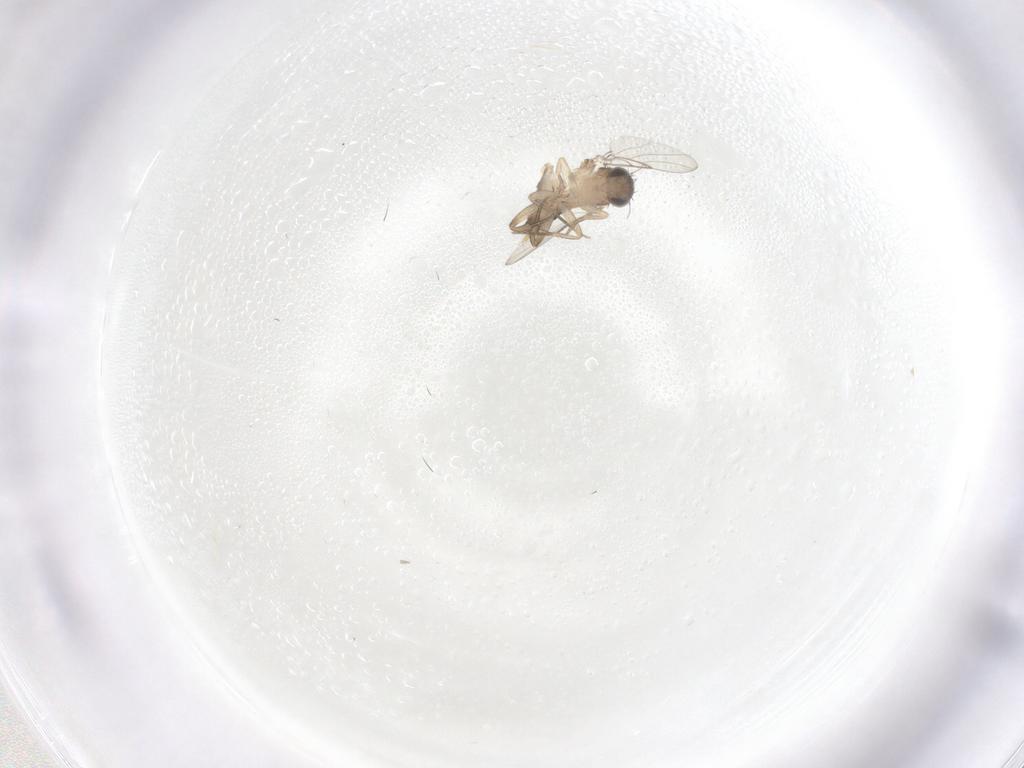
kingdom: Animalia
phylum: Arthropoda
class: Insecta
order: Diptera
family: Phoridae
